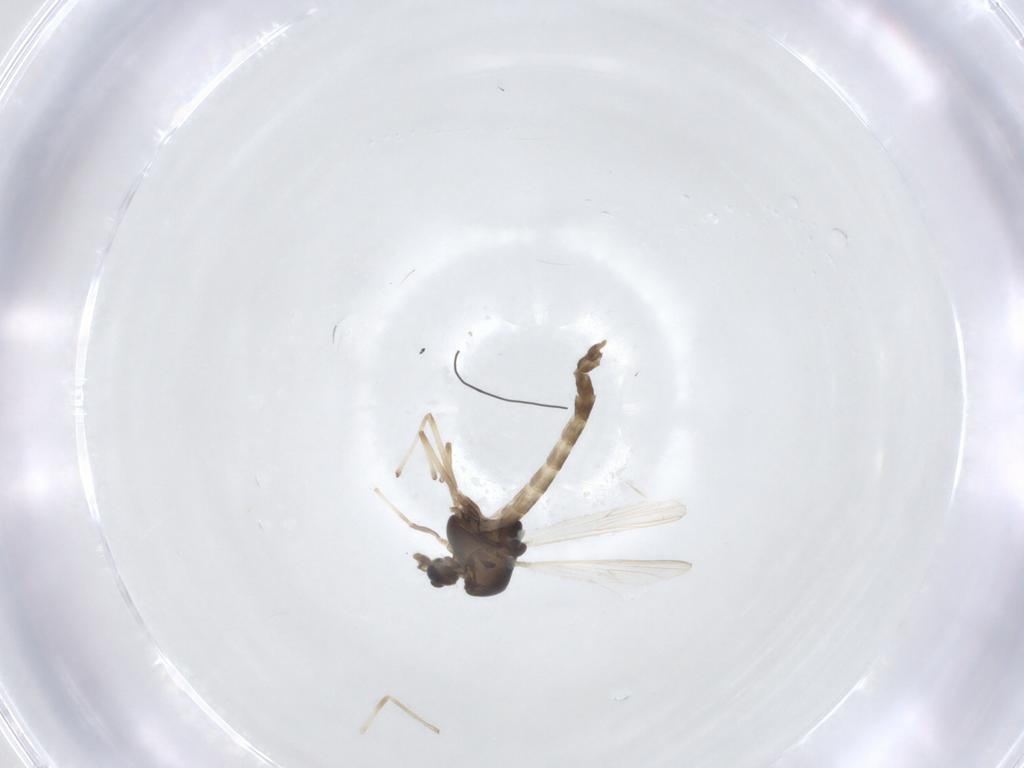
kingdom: Animalia
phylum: Arthropoda
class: Insecta
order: Diptera
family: Chironomidae
